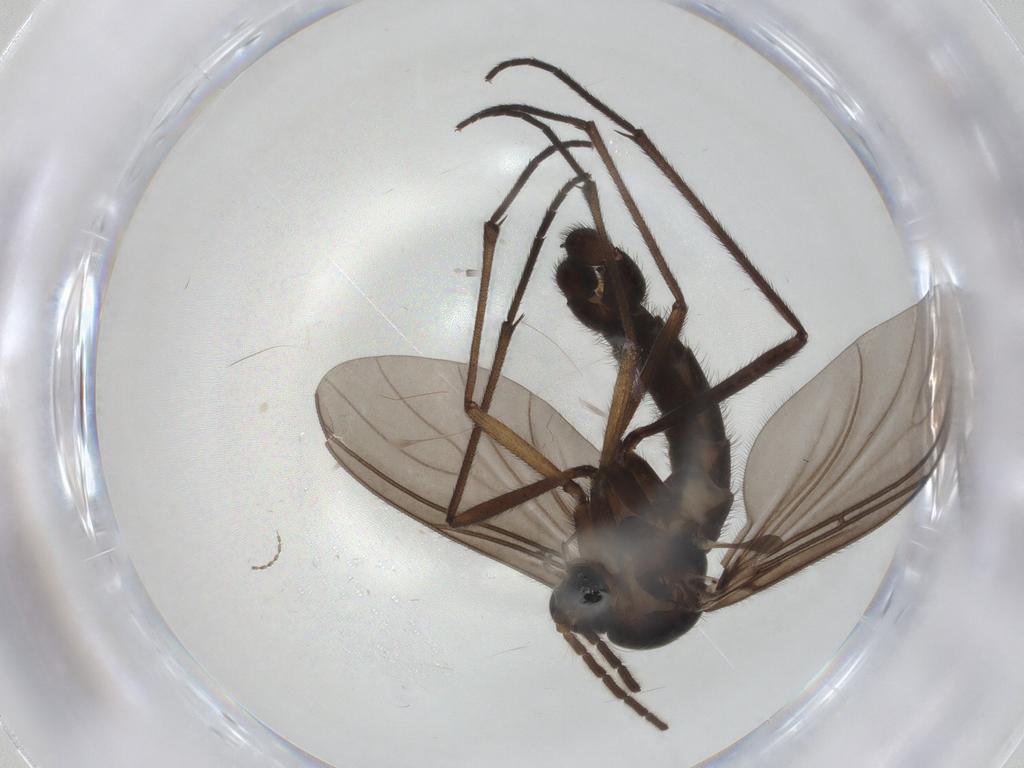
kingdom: Animalia
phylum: Arthropoda
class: Insecta
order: Diptera
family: Sciaridae
